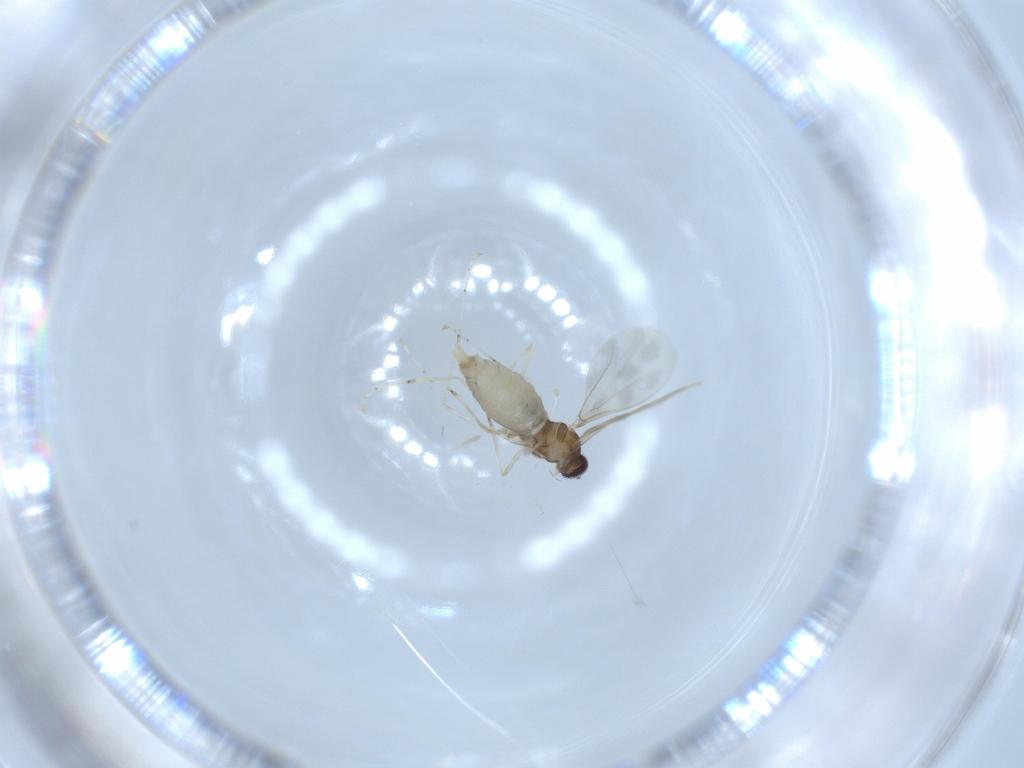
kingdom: Animalia
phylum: Arthropoda
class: Insecta
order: Diptera
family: Cecidomyiidae
